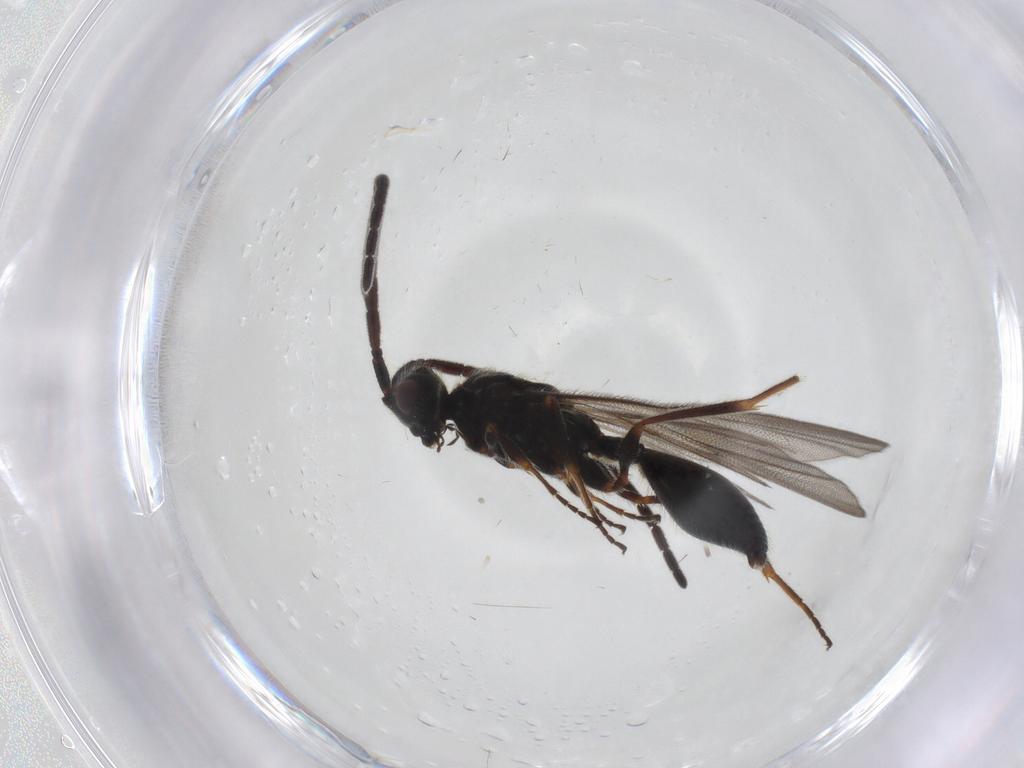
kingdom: Animalia
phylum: Arthropoda
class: Insecta
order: Hymenoptera
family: Diapriidae
